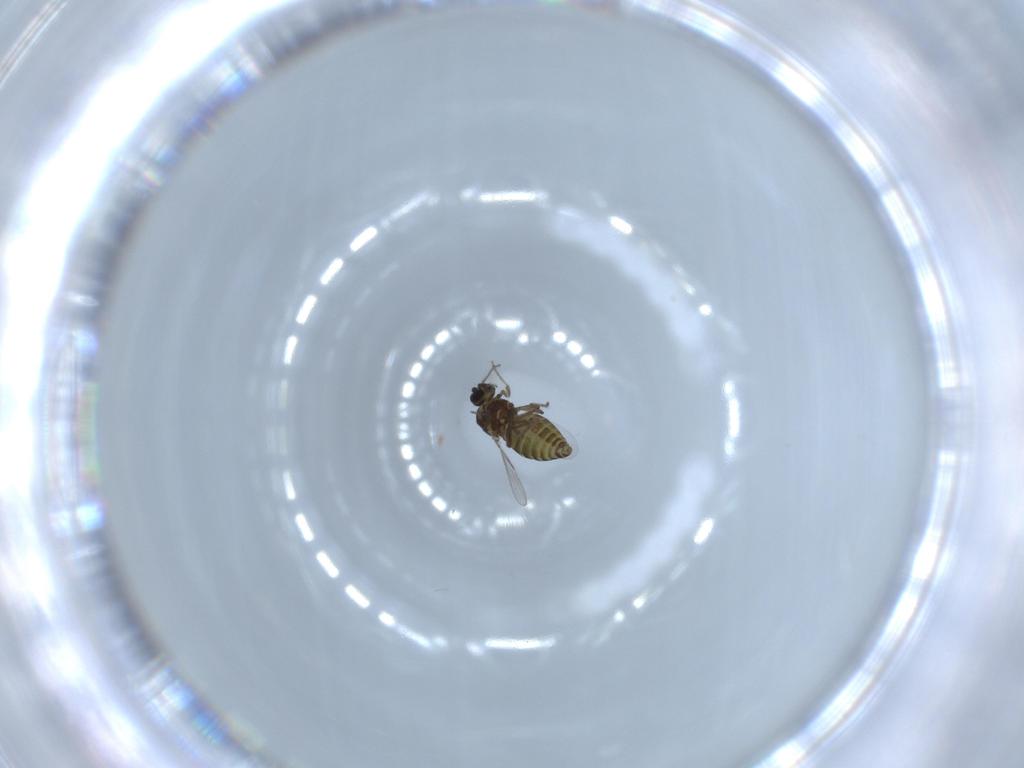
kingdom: Animalia
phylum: Arthropoda
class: Insecta
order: Diptera
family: Ceratopogonidae
